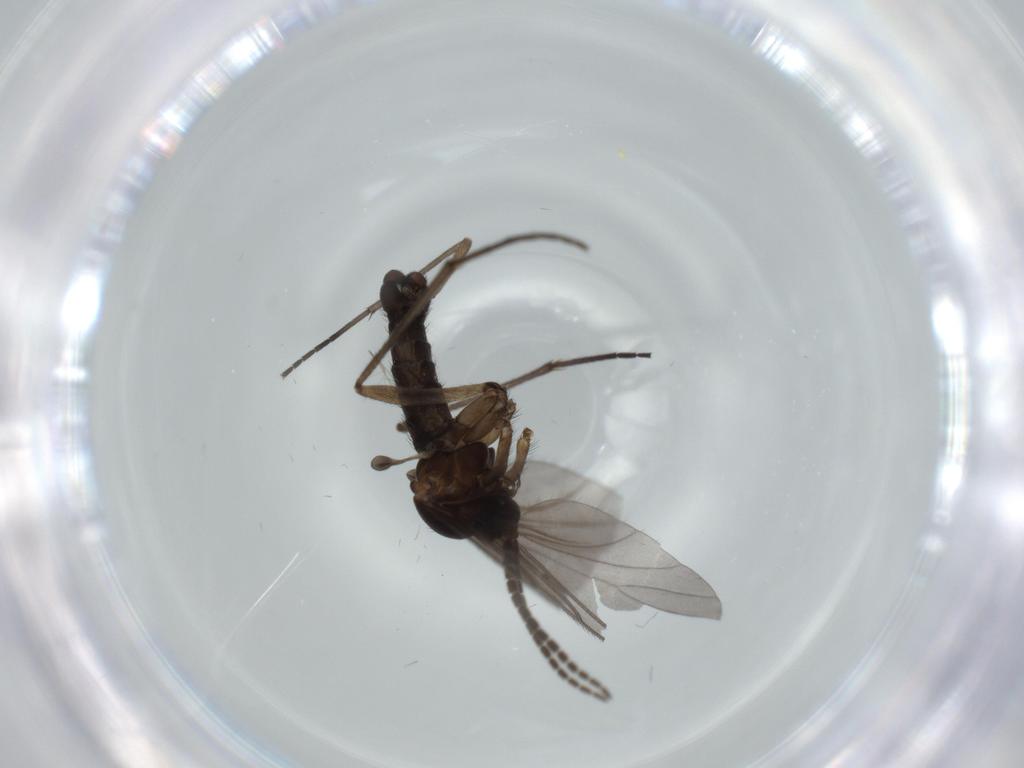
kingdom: Animalia
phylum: Arthropoda
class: Insecta
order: Diptera
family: Sciaridae
